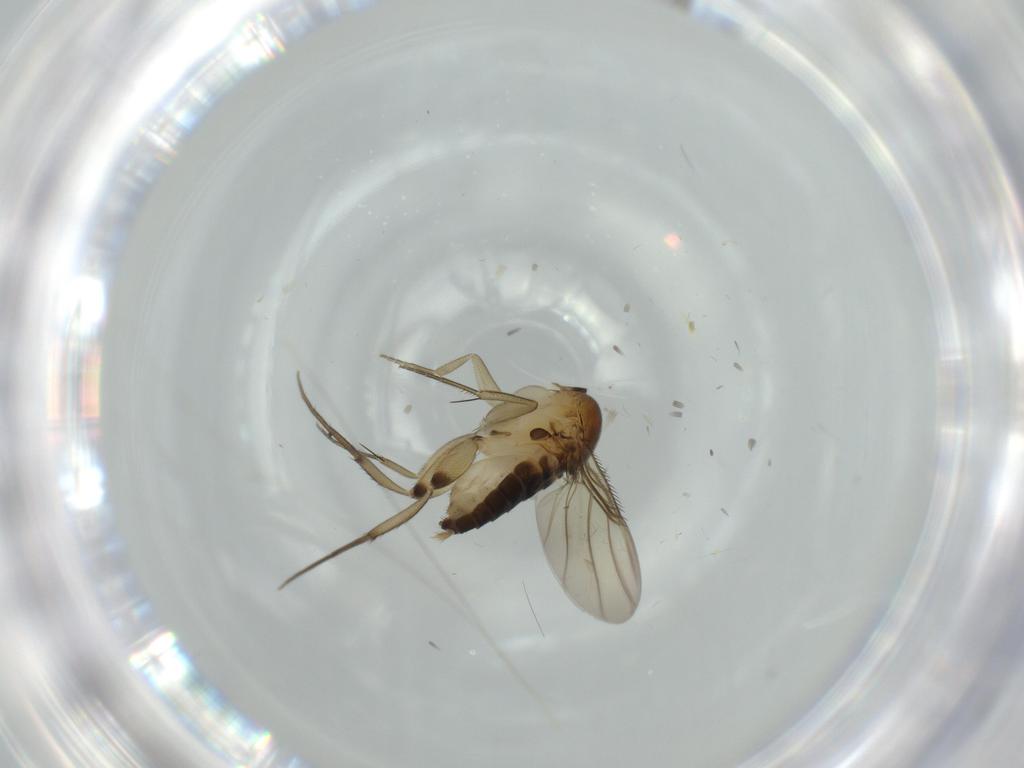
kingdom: Animalia
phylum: Arthropoda
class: Insecta
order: Diptera
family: Phoridae
